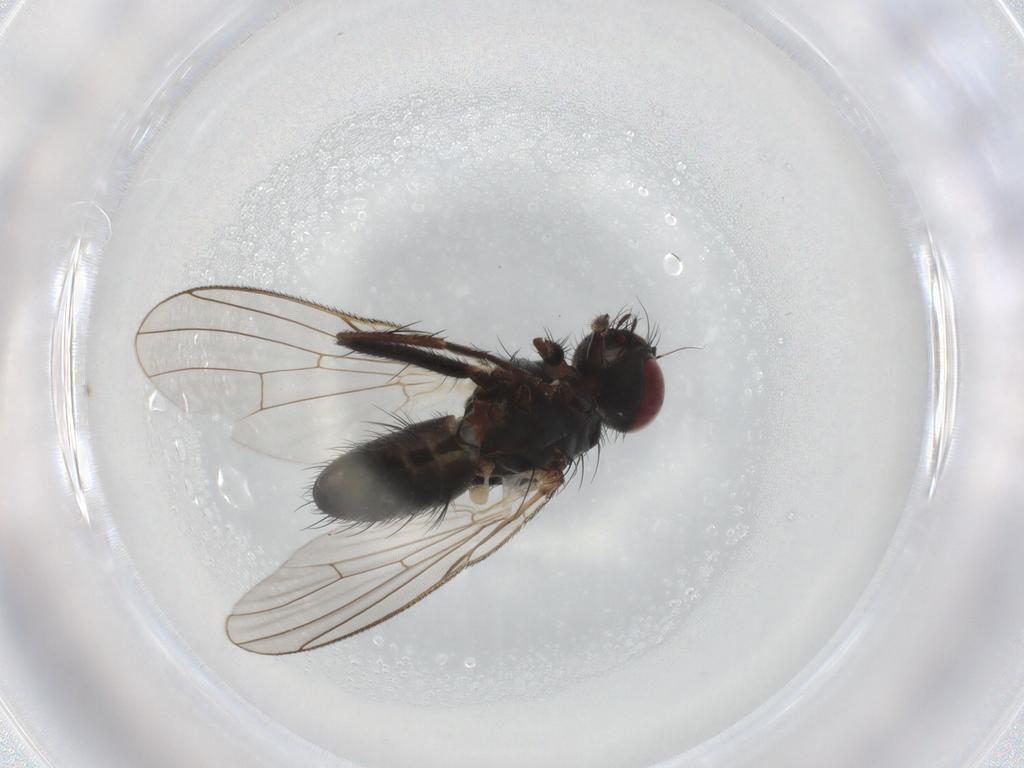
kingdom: Animalia
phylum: Arthropoda
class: Insecta
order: Diptera
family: Muscidae
